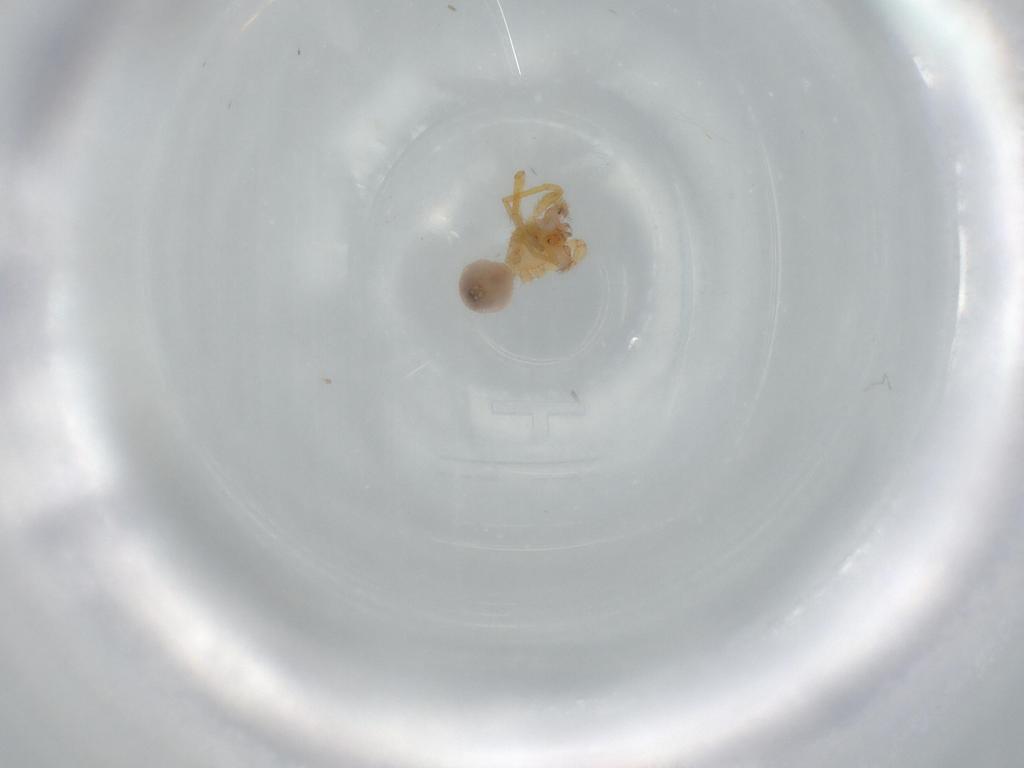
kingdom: Animalia
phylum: Arthropoda
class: Arachnida
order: Araneae
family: Oonopidae
